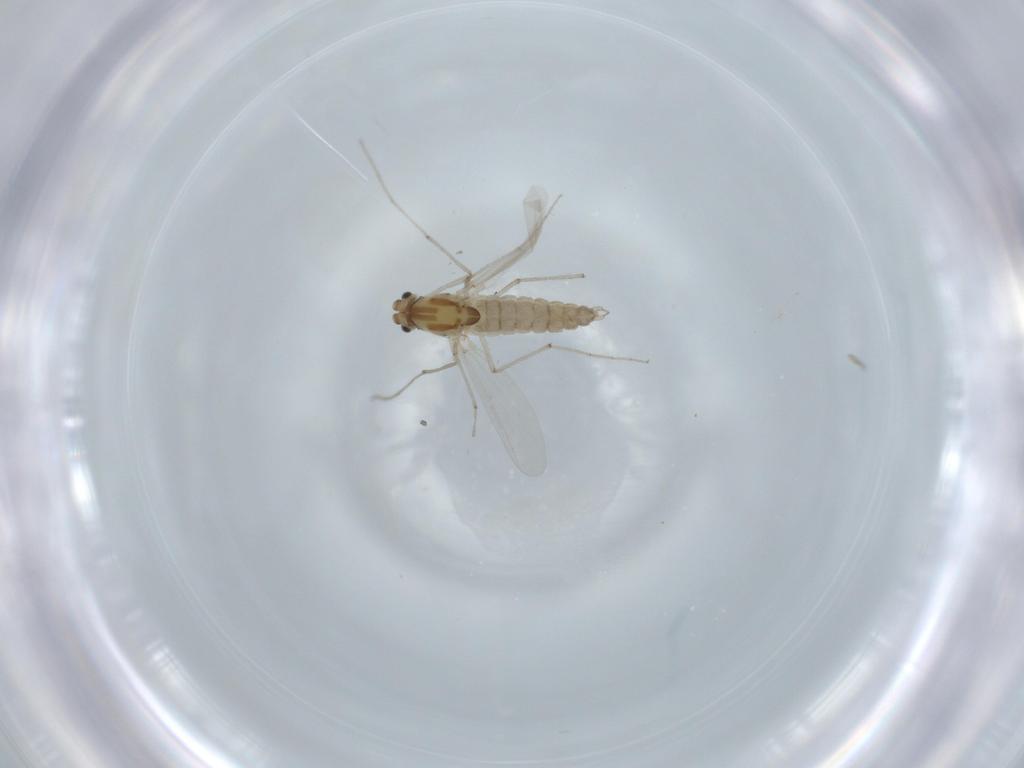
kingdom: Animalia
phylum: Arthropoda
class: Insecta
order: Diptera
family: Chironomidae
